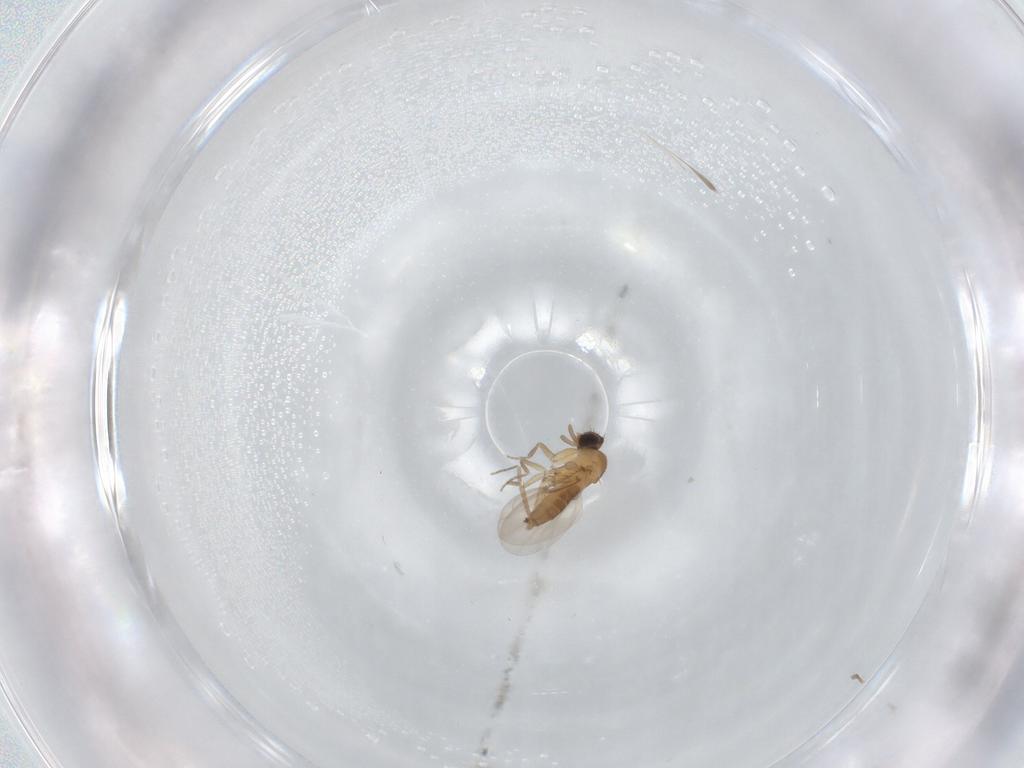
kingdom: Animalia
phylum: Arthropoda
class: Insecta
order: Diptera
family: Phoridae
